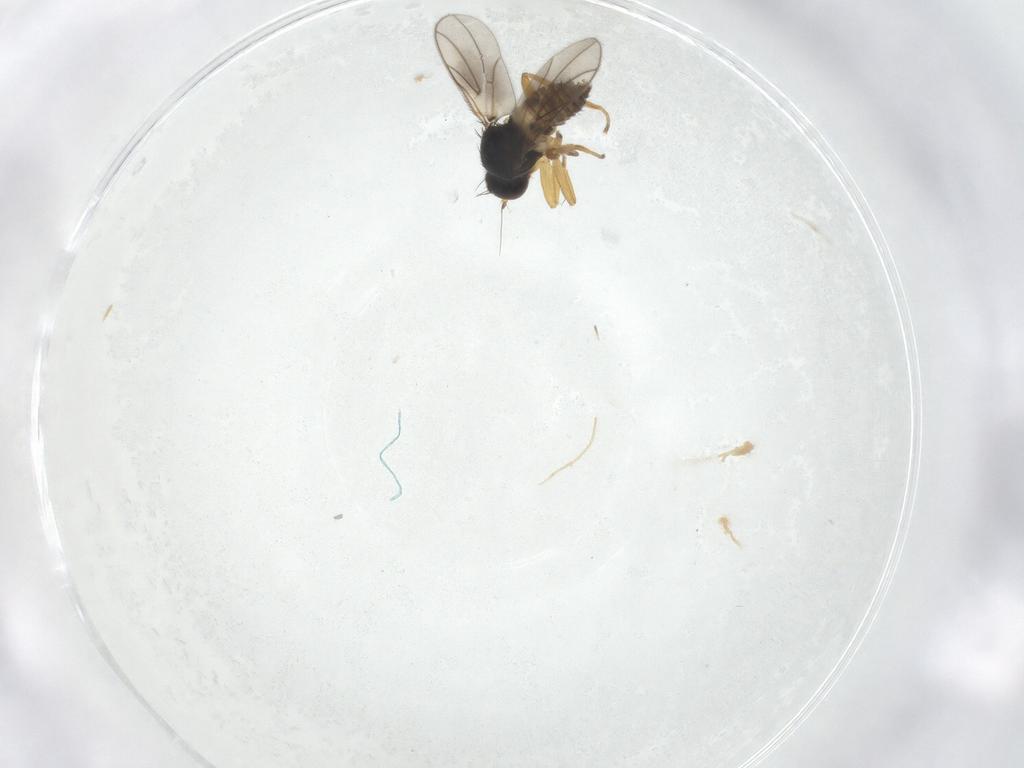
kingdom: Animalia
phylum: Arthropoda
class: Insecta
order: Diptera
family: Hybotidae
